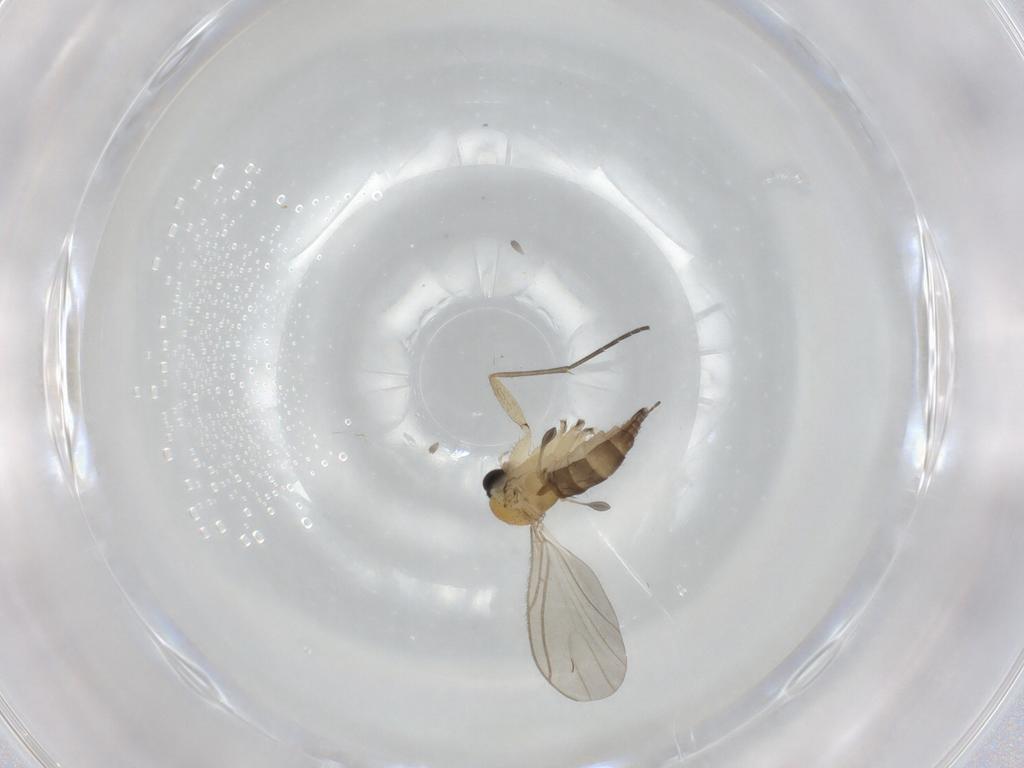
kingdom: Animalia
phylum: Arthropoda
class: Insecta
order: Diptera
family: Sciaridae
